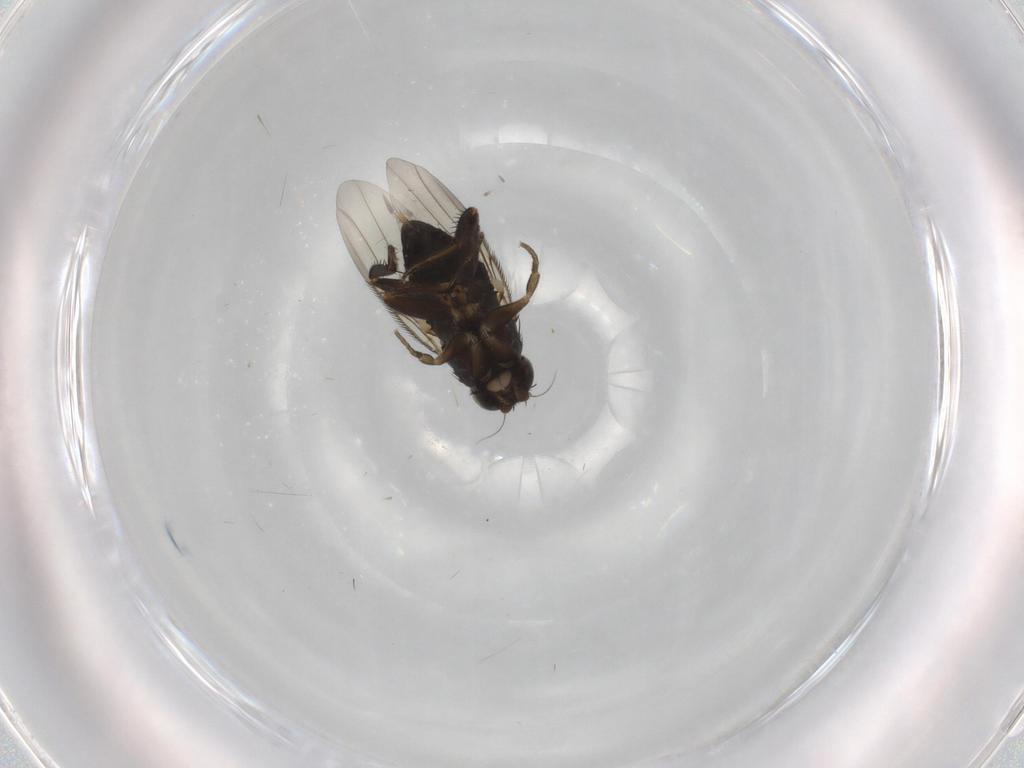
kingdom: Animalia
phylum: Arthropoda
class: Insecta
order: Diptera
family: Phoridae
